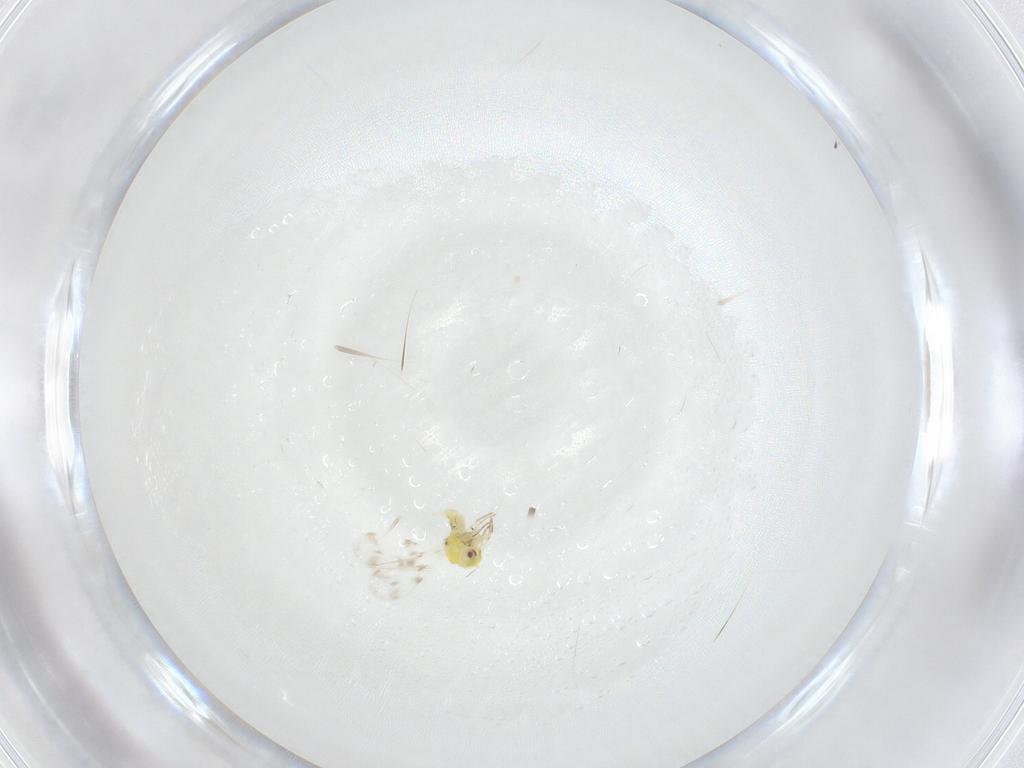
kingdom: Animalia
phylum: Arthropoda
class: Insecta
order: Hemiptera
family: Aleyrodidae
